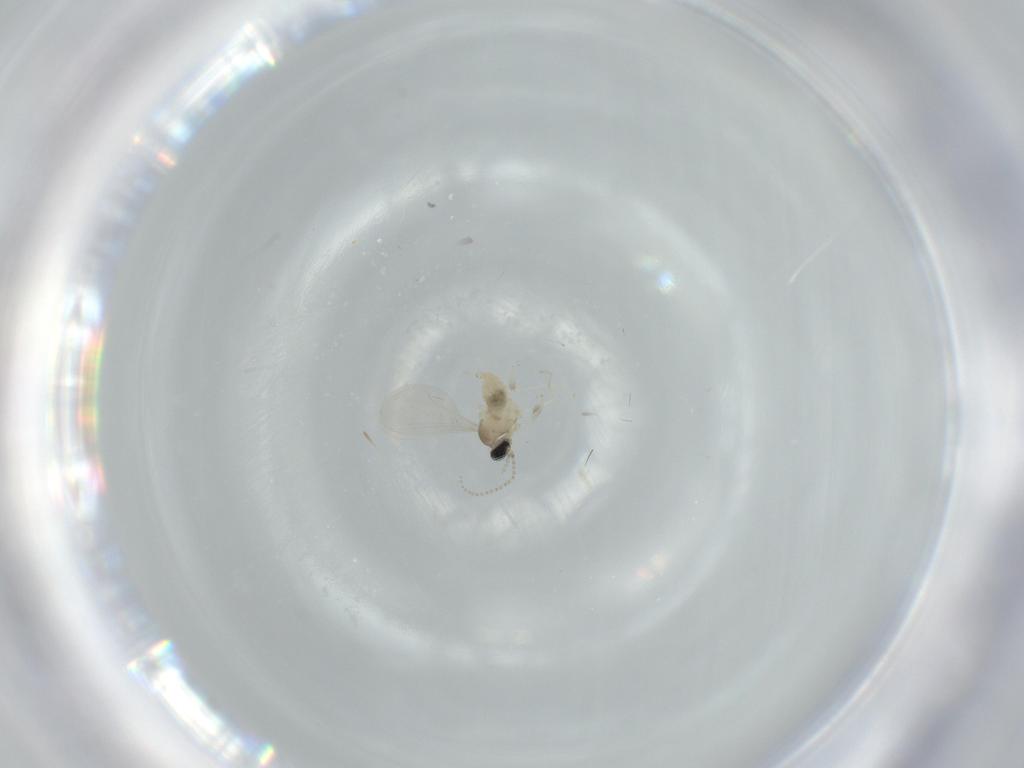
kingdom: Animalia
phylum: Arthropoda
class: Insecta
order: Diptera
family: Cecidomyiidae
